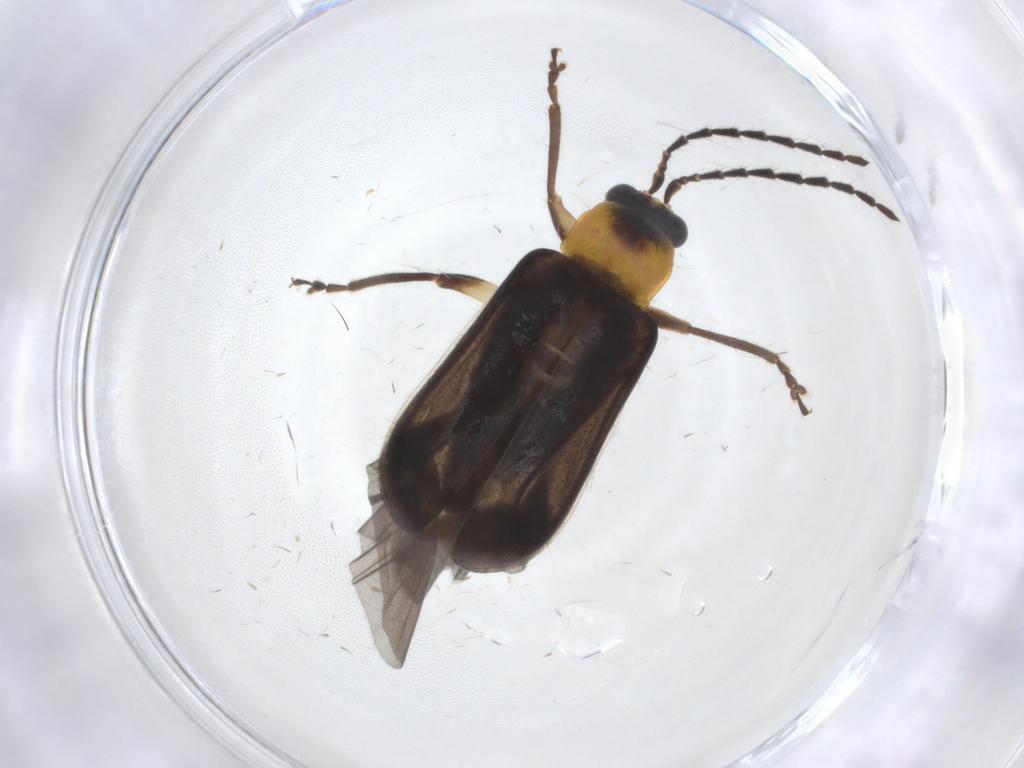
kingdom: Animalia
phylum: Arthropoda
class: Insecta
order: Coleoptera
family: Chrysomelidae
